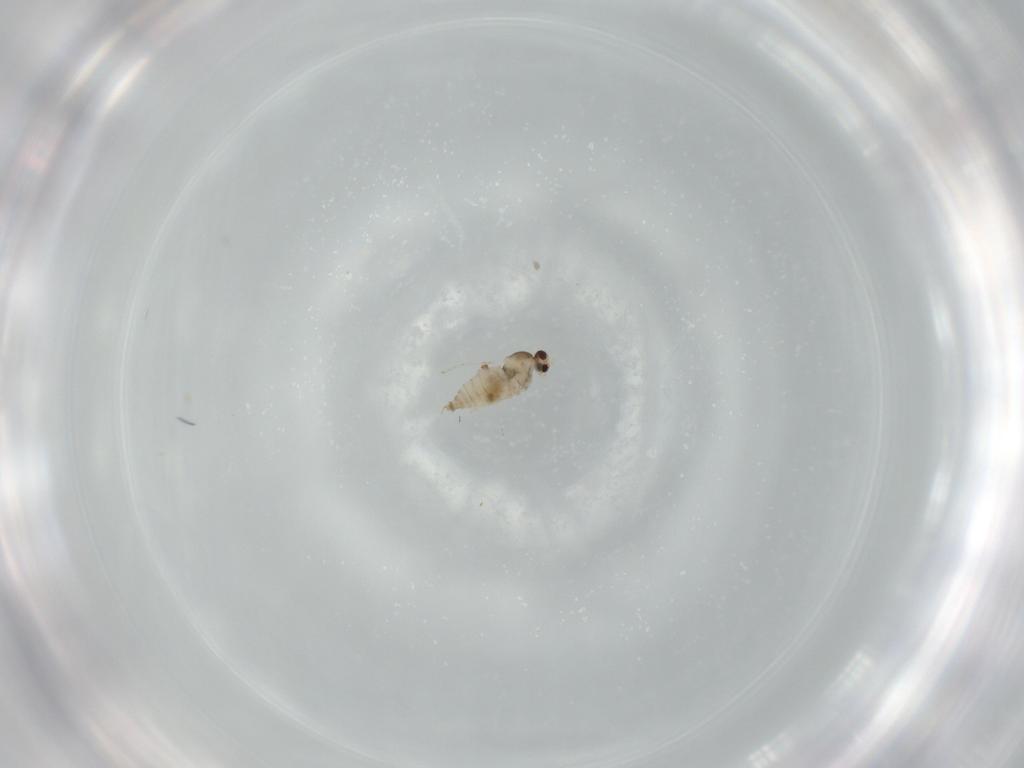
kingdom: Animalia
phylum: Arthropoda
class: Insecta
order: Diptera
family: Cecidomyiidae
